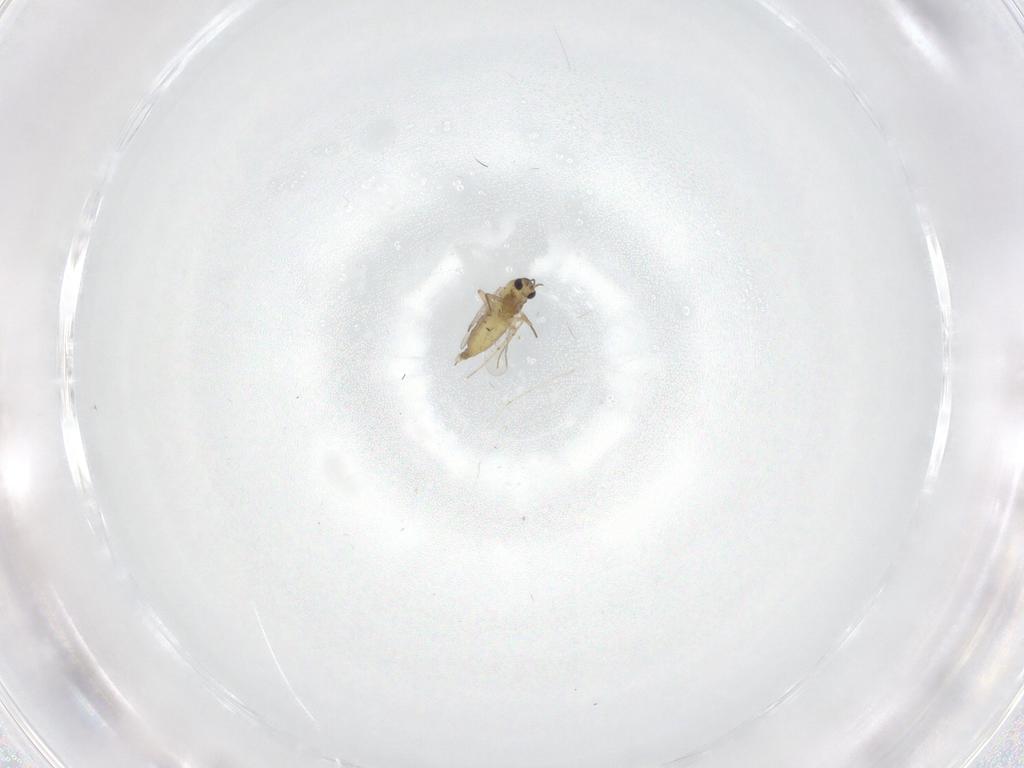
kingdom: Animalia
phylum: Arthropoda
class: Insecta
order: Diptera
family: Chironomidae
